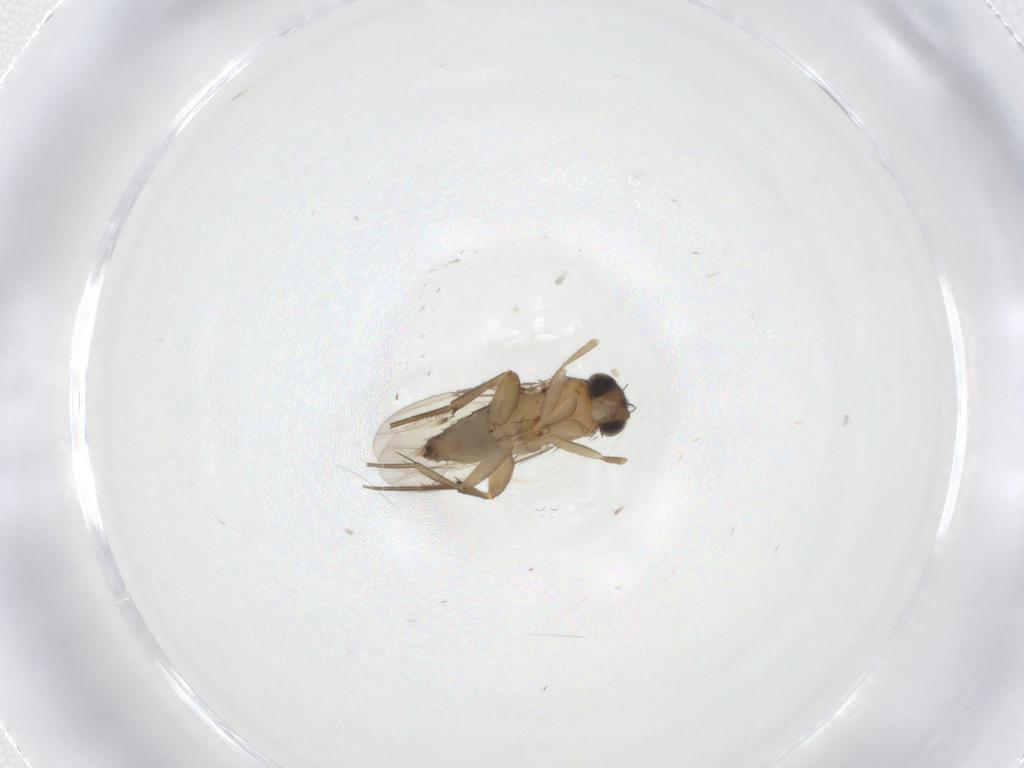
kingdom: Animalia
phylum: Arthropoda
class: Insecta
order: Diptera
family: Phoridae
